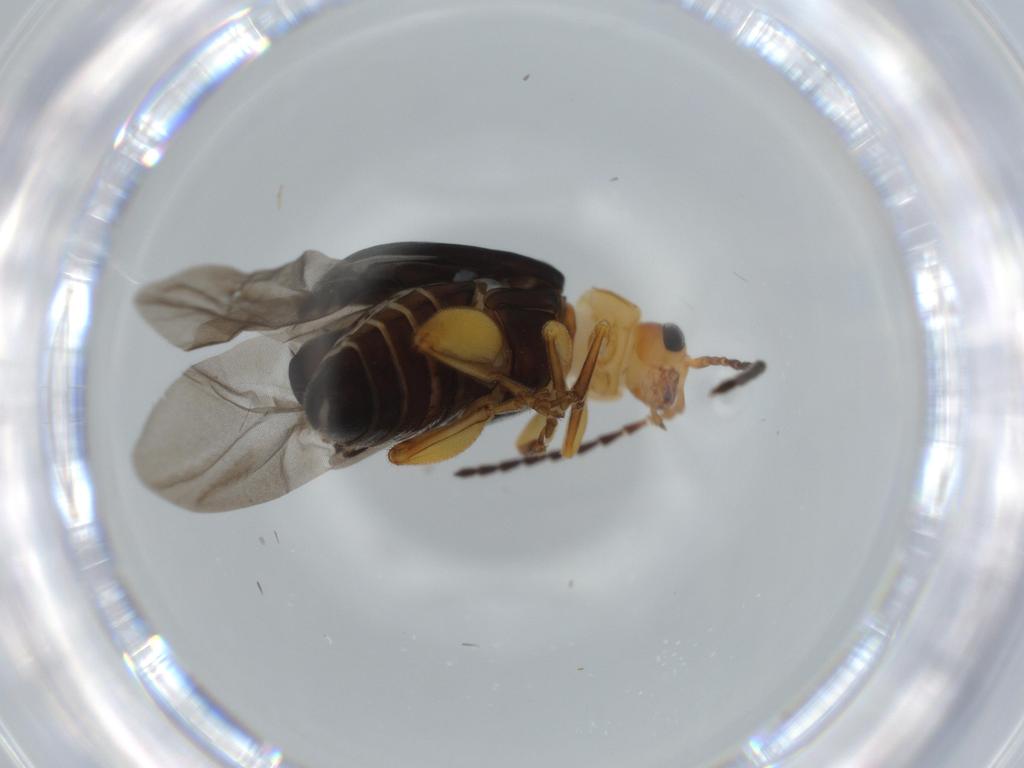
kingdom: Animalia
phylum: Arthropoda
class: Insecta
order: Coleoptera
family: Chrysomelidae
